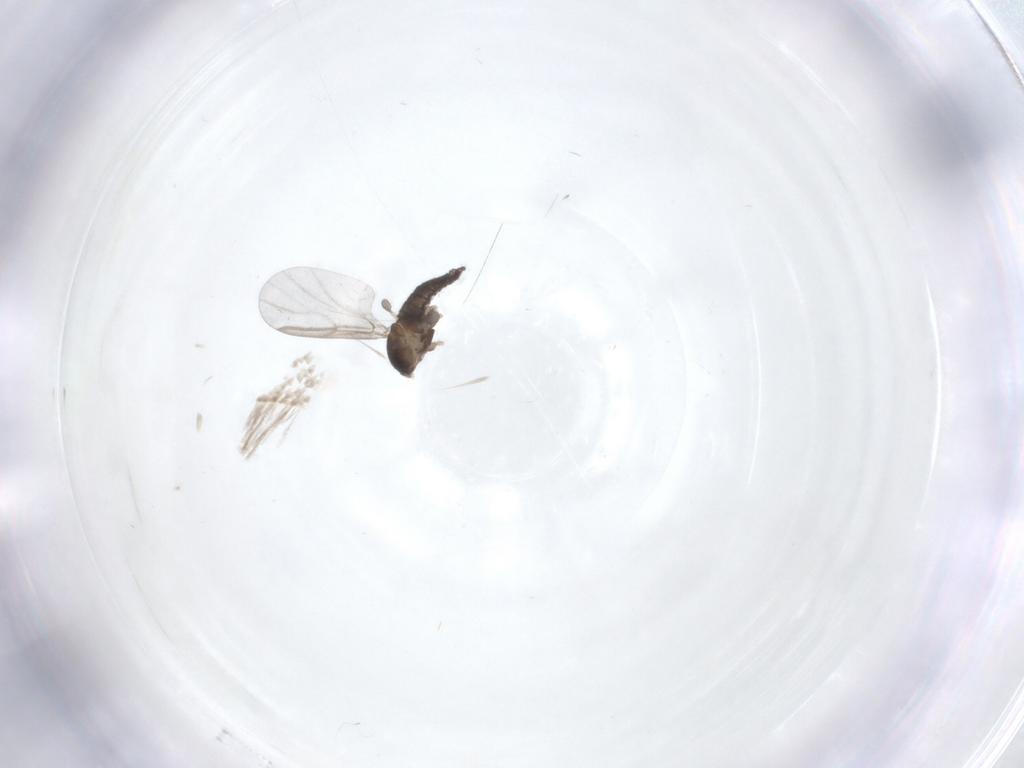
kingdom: Animalia
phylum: Arthropoda
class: Insecta
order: Diptera
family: Cecidomyiidae
